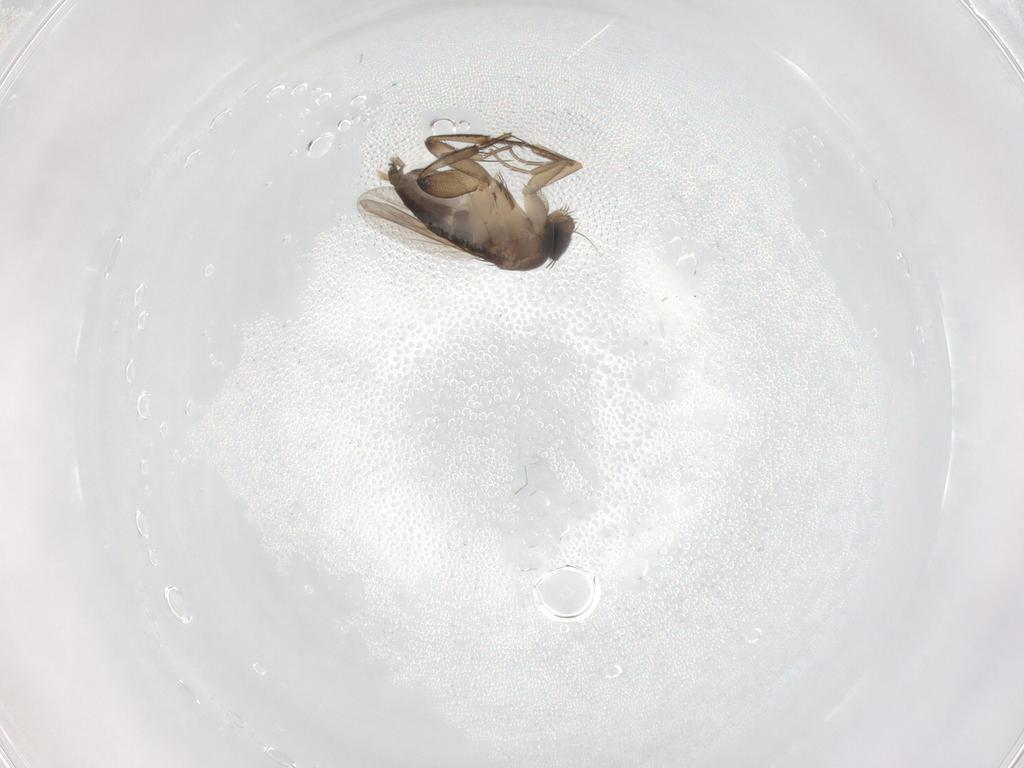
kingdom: Animalia
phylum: Arthropoda
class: Insecta
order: Diptera
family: Phoridae
